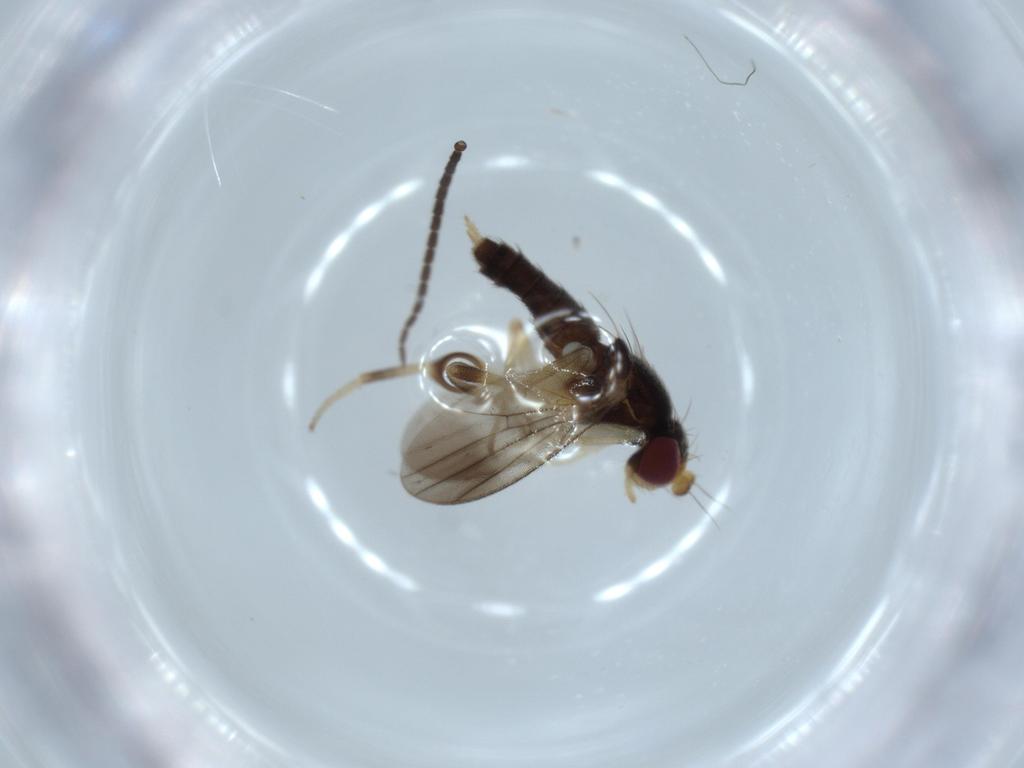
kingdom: Animalia
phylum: Arthropoda
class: Insecta
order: Diptera
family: Clusiidae
